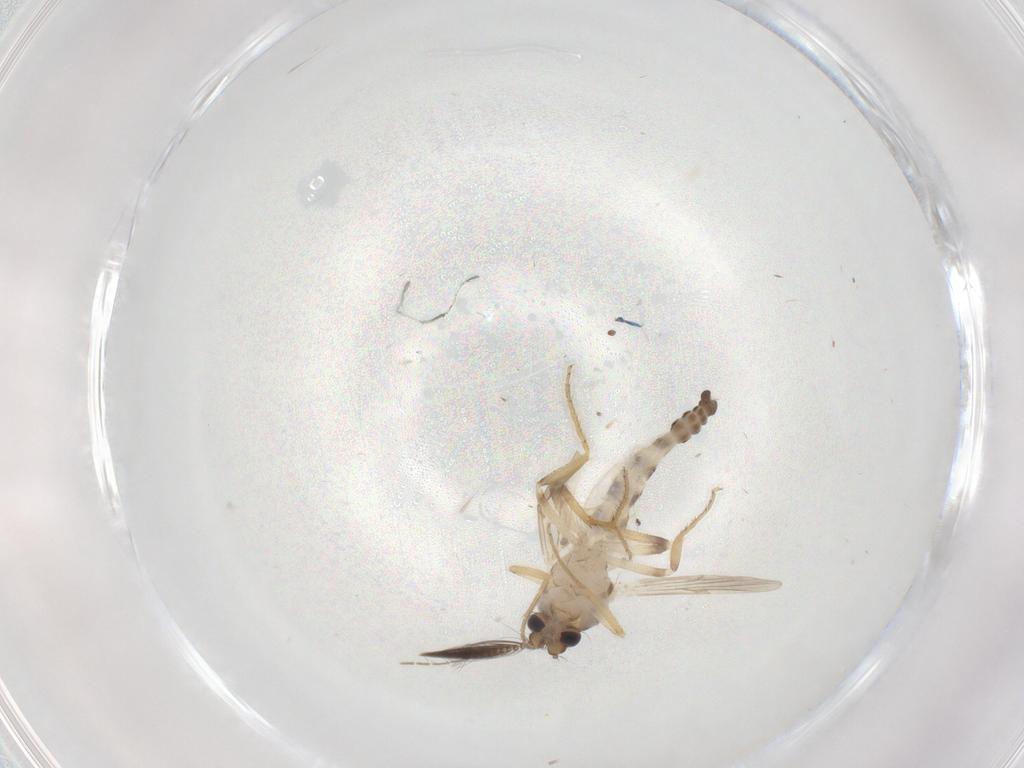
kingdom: Animalia
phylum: Arthropoda
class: Insecta
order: Diptera
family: Ceratopogonidae
